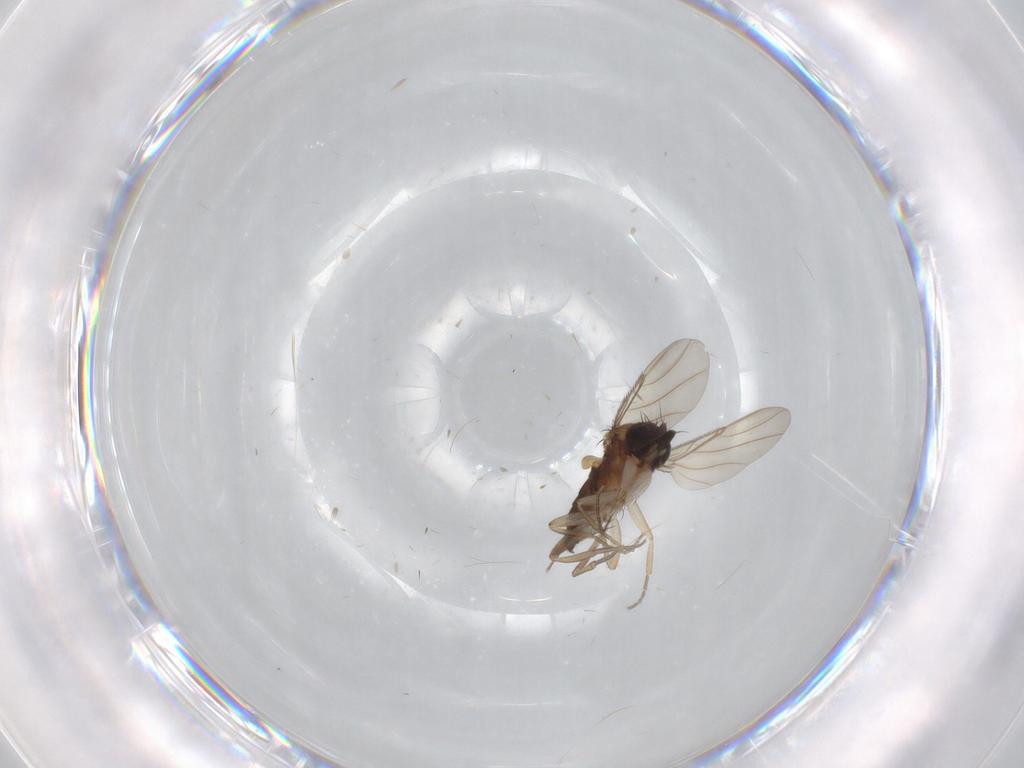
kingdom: Animalia
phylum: Arthropoda
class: Insecta
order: Diptera
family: Phoridae
